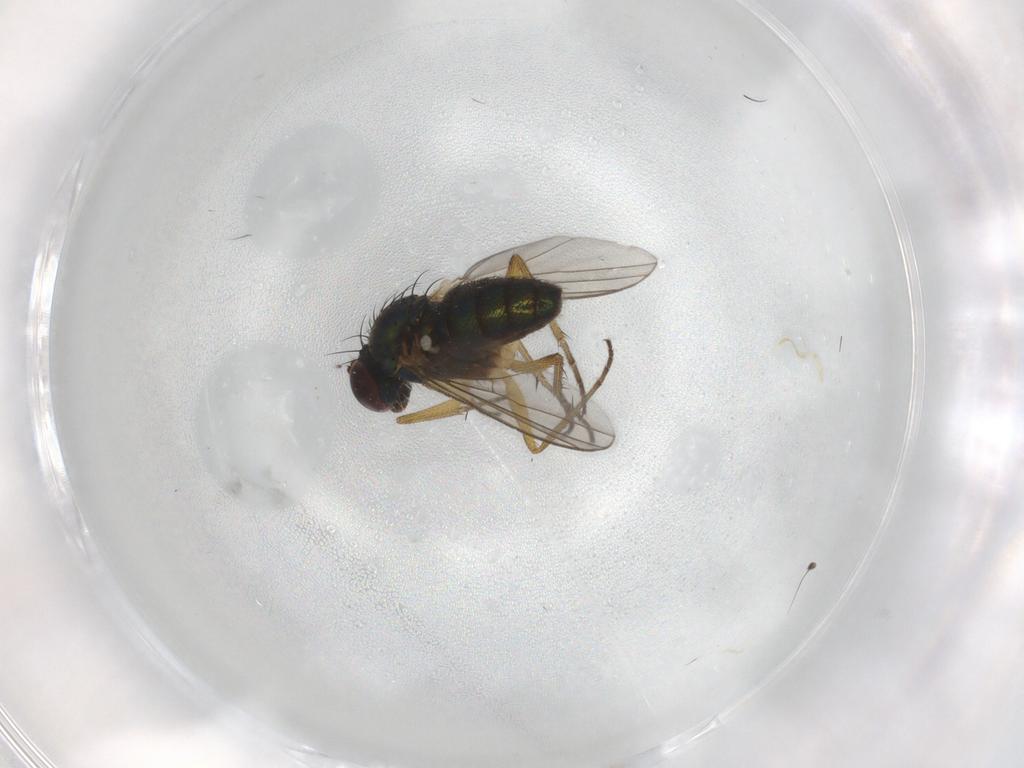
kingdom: Animalia
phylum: Arthropoda
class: Insecta
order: Diptera
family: Dolichopodidae
